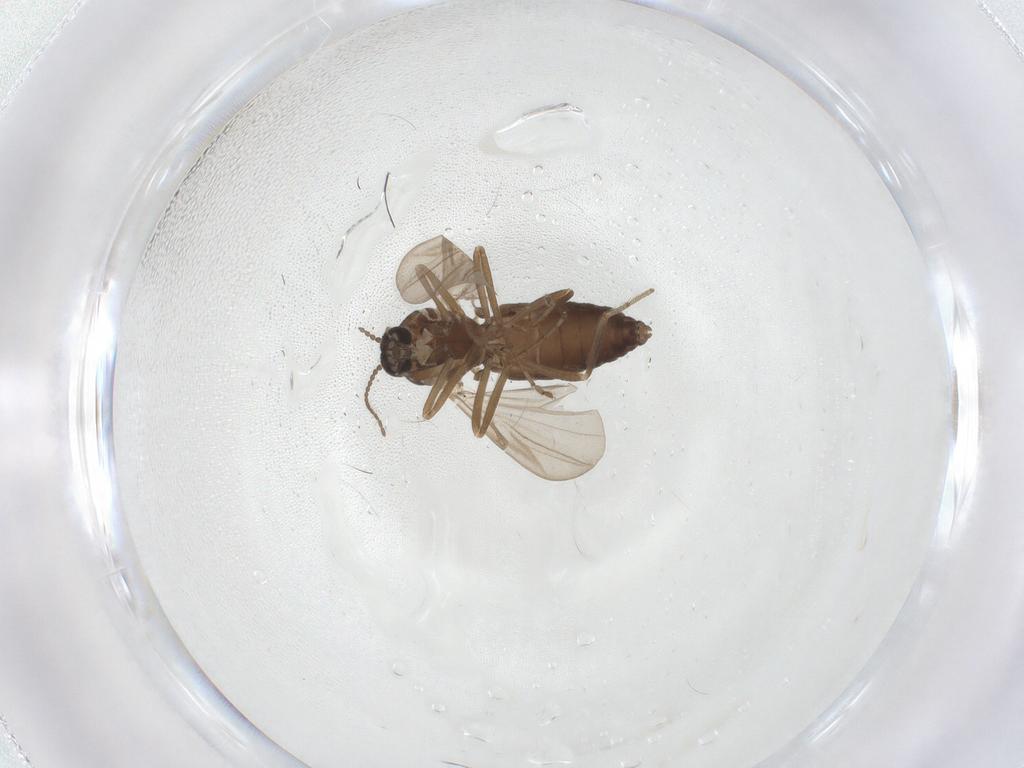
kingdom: Animalia
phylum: Arthropoda
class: Insecta
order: Diptera
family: Ceratopogonidae
